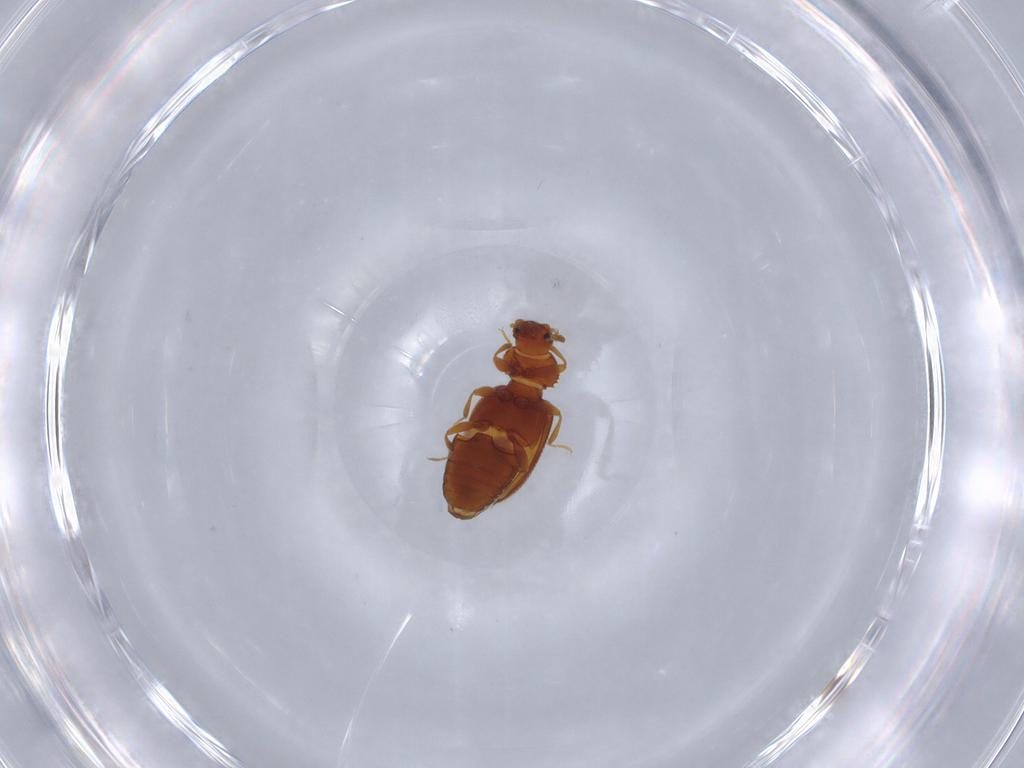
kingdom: Animalia
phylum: Arthropoda
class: Insecta
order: Coleoptera
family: Latridiidae
